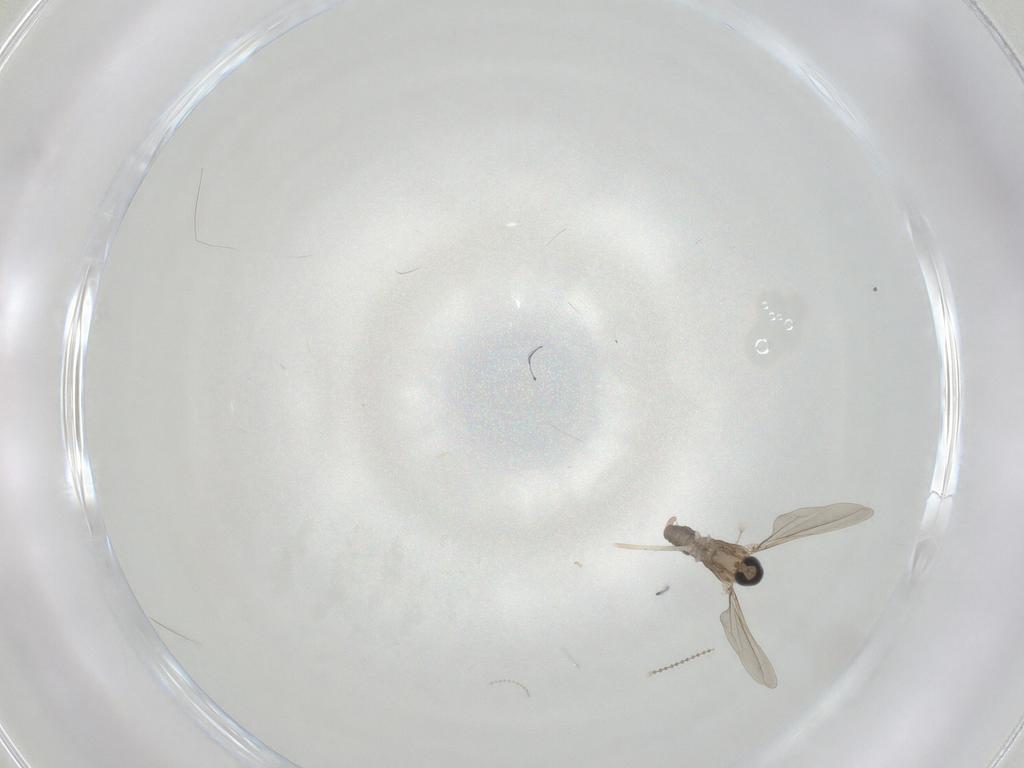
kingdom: Animalia
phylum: Arthropoda
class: Insecta
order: Diptera
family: Cecidomyiidae
